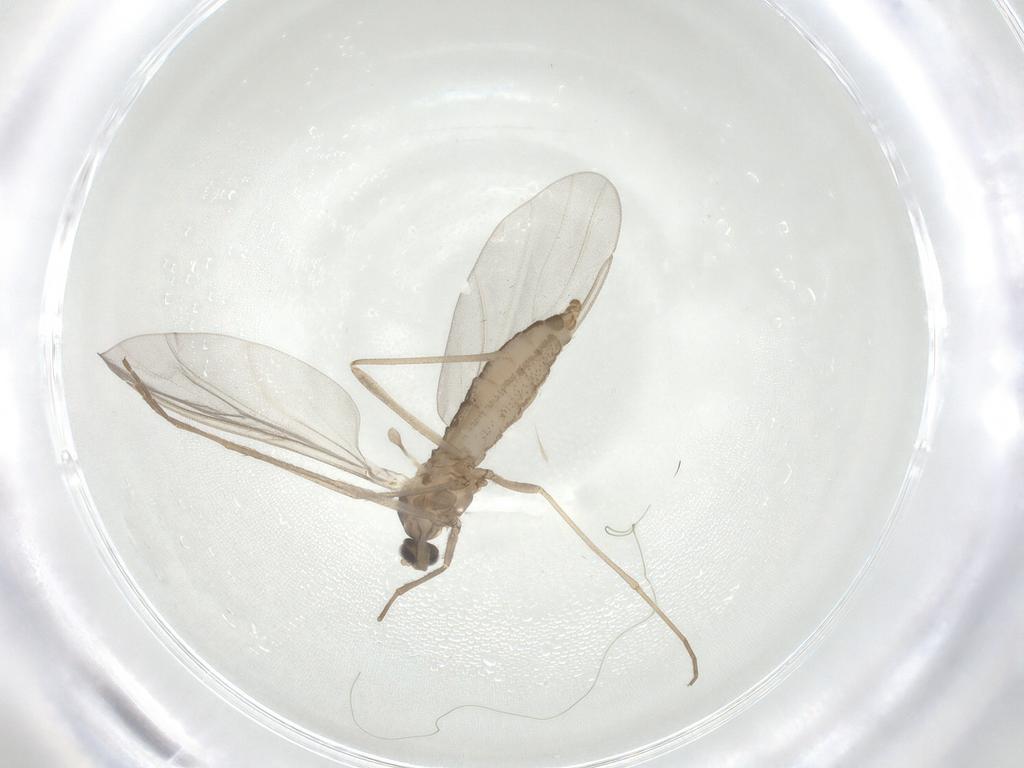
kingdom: Animalia
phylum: Arthropoda
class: Insecta
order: Diptera
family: Cecidomyiidae
